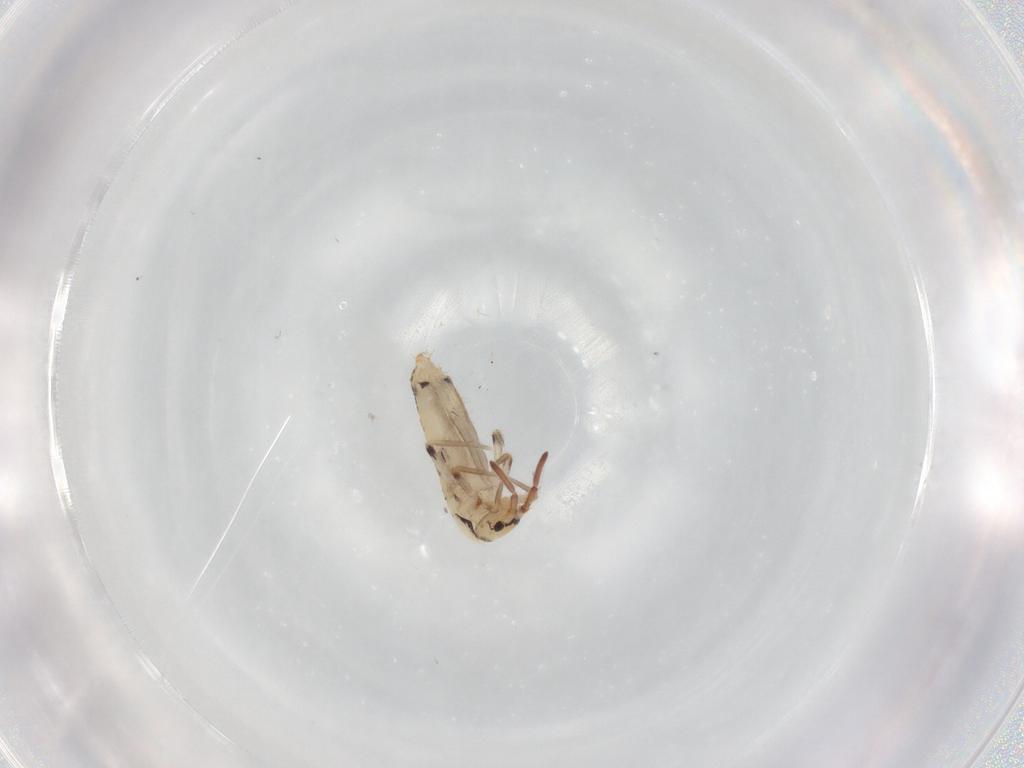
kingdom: Animalia
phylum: Arthropoda
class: Collembola
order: Entomobryomorpha
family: Entomobryidae
